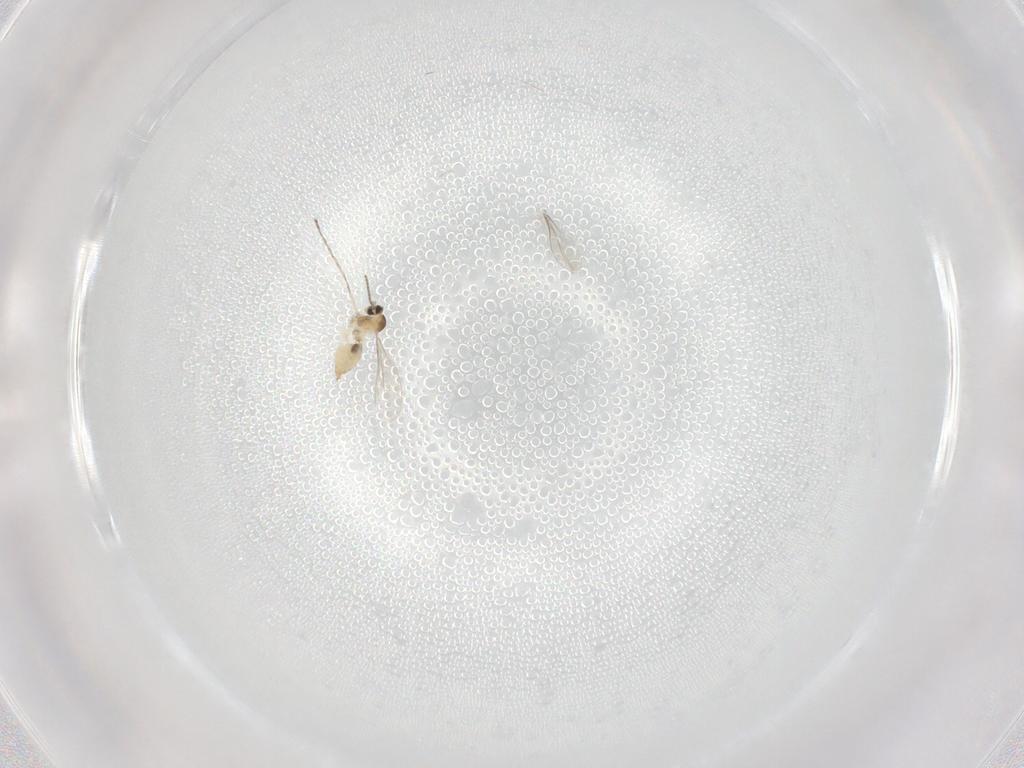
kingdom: Animalia
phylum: Arthropoda
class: Insecta
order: Diptera
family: Cecidomyiidae
